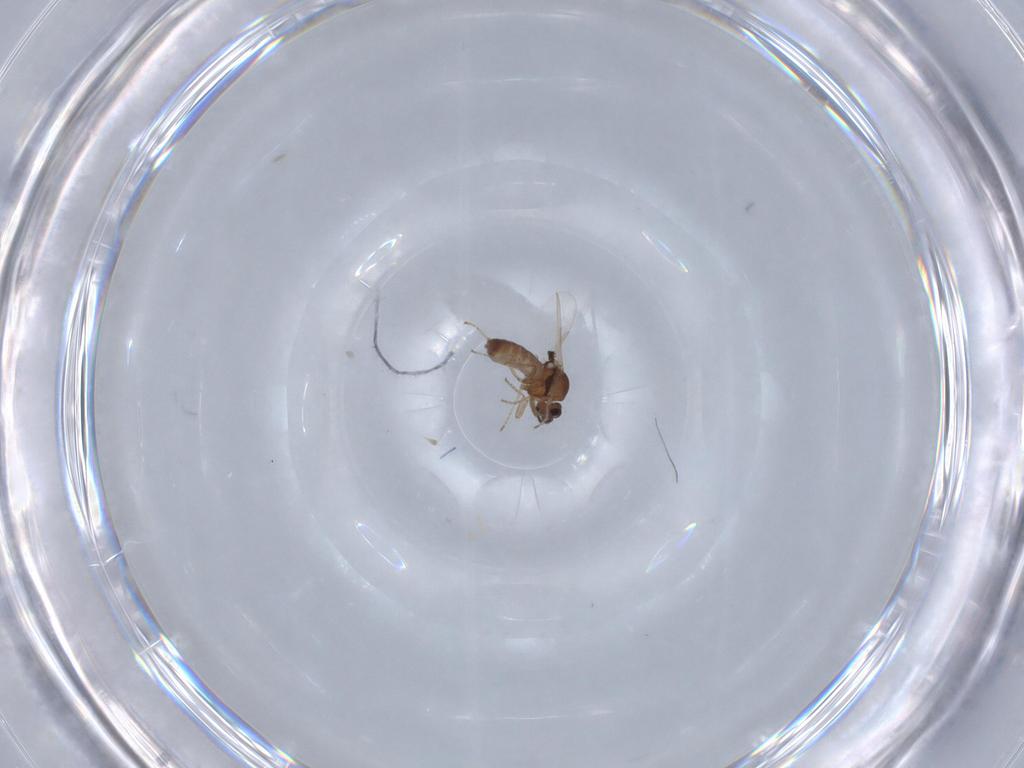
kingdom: Animalia
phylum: Arthropoda
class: Insecta
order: Diptera
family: Ceratopogonidae
